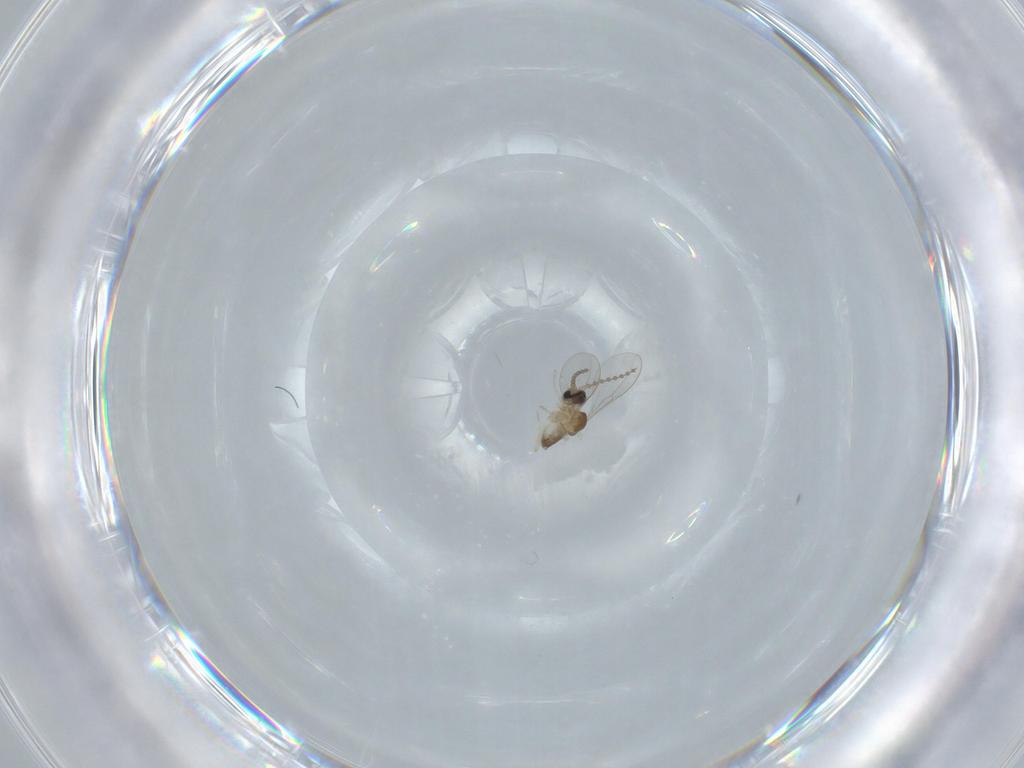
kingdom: Animalia
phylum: Arthropoda
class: Insecta
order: Diptera
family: Cecidomyiidae
